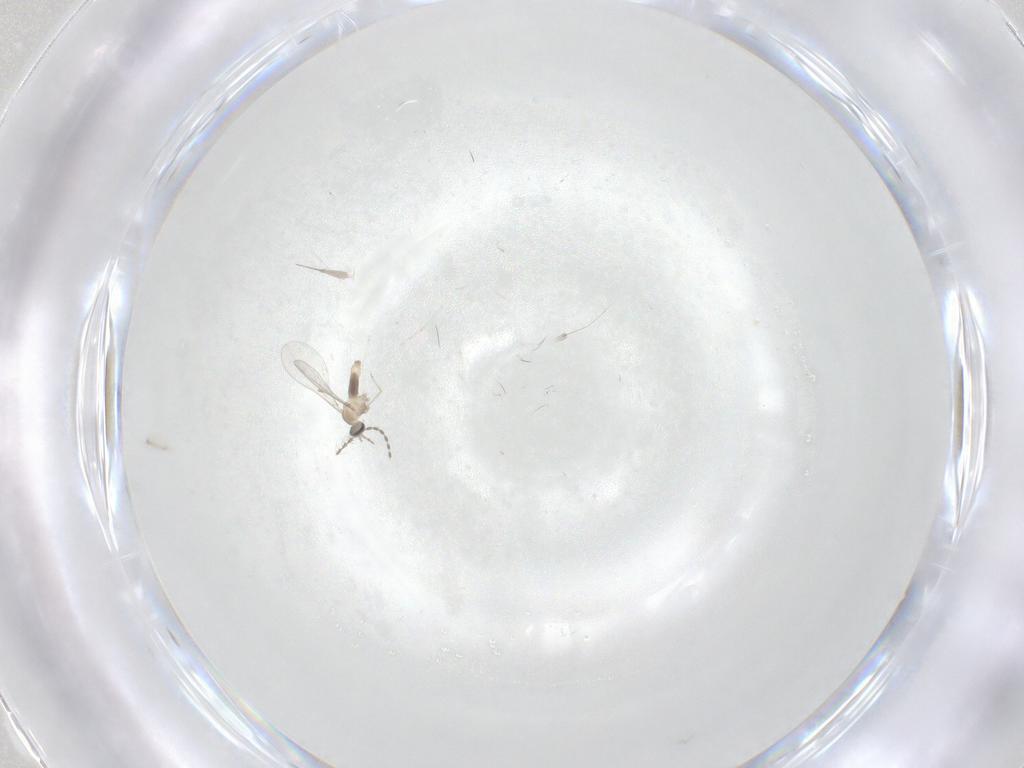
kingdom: Animalia
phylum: Arthropoda
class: Insecta
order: Diptera
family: Cecidomyiidae
